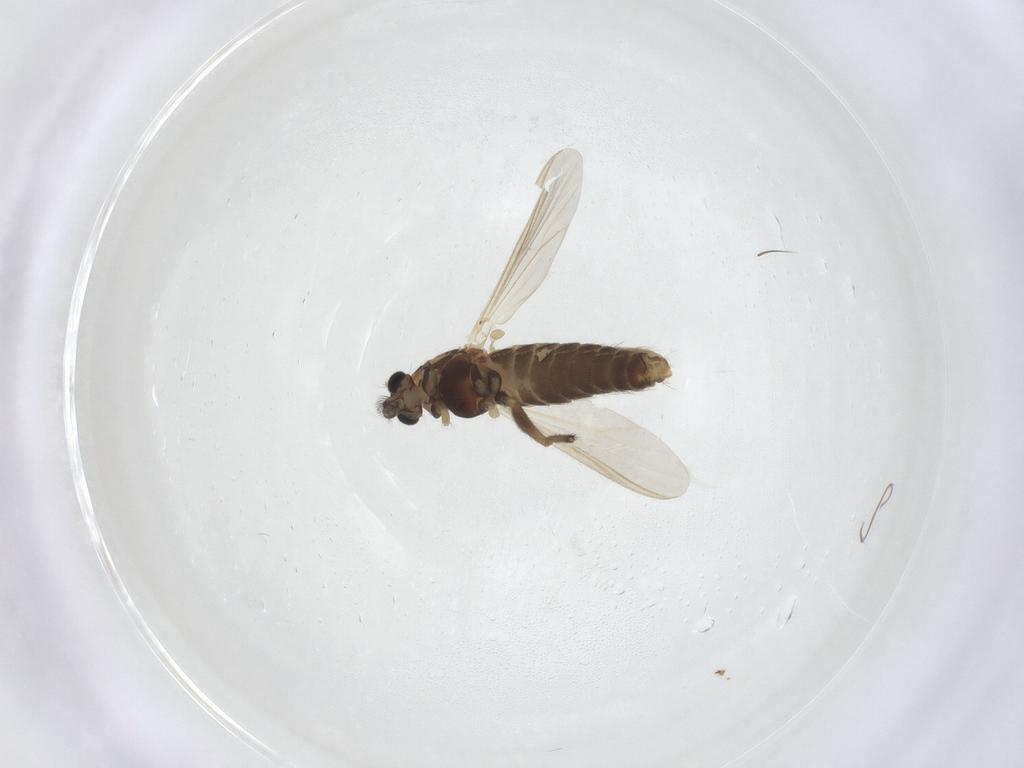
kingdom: Animalia
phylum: Arthropoda
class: Insecta
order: Diptera
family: Chironomidae
